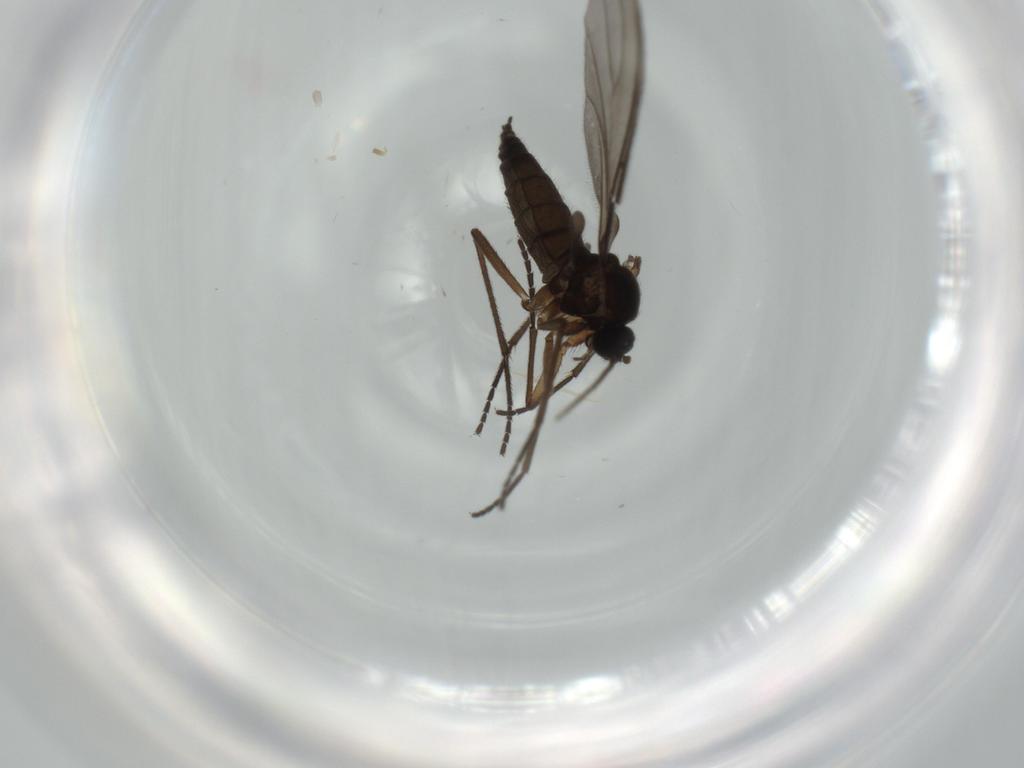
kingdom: Animalia
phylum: Arthropoda
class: Insecta
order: Diptera
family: Sciaridae
